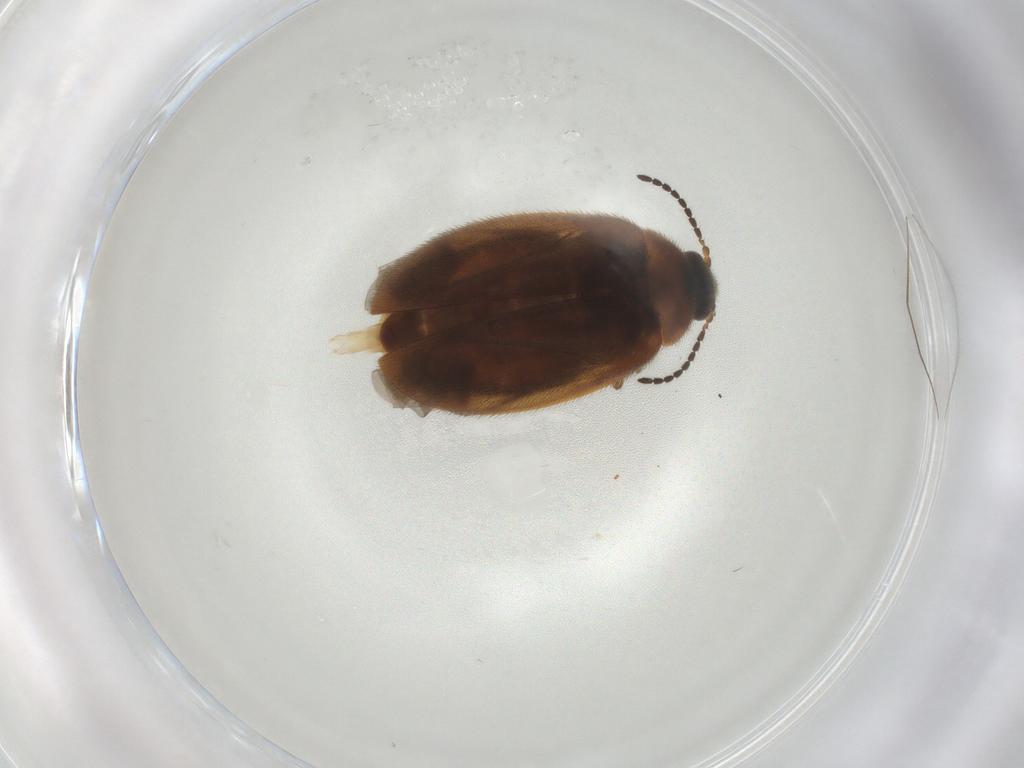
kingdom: Animalia
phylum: Arthropoda
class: Insecta
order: Coleoptera
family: Scirtidae
